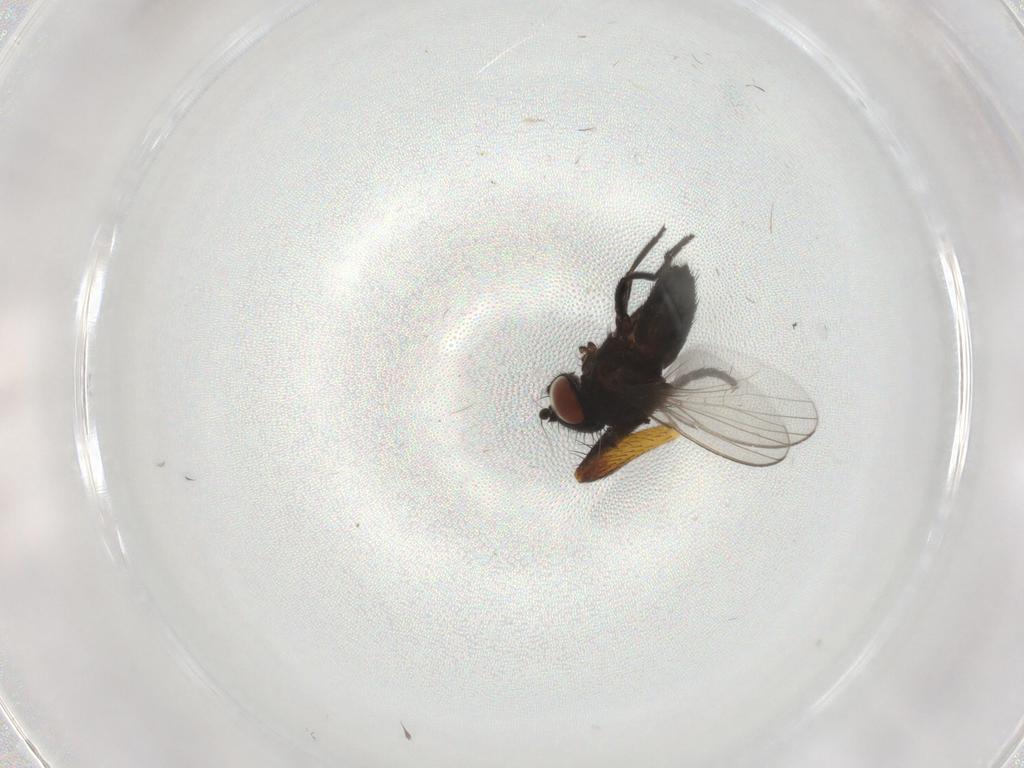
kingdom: Animalia
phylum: Arthropoda
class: Insecta
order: Diptera
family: Ulidiidae
